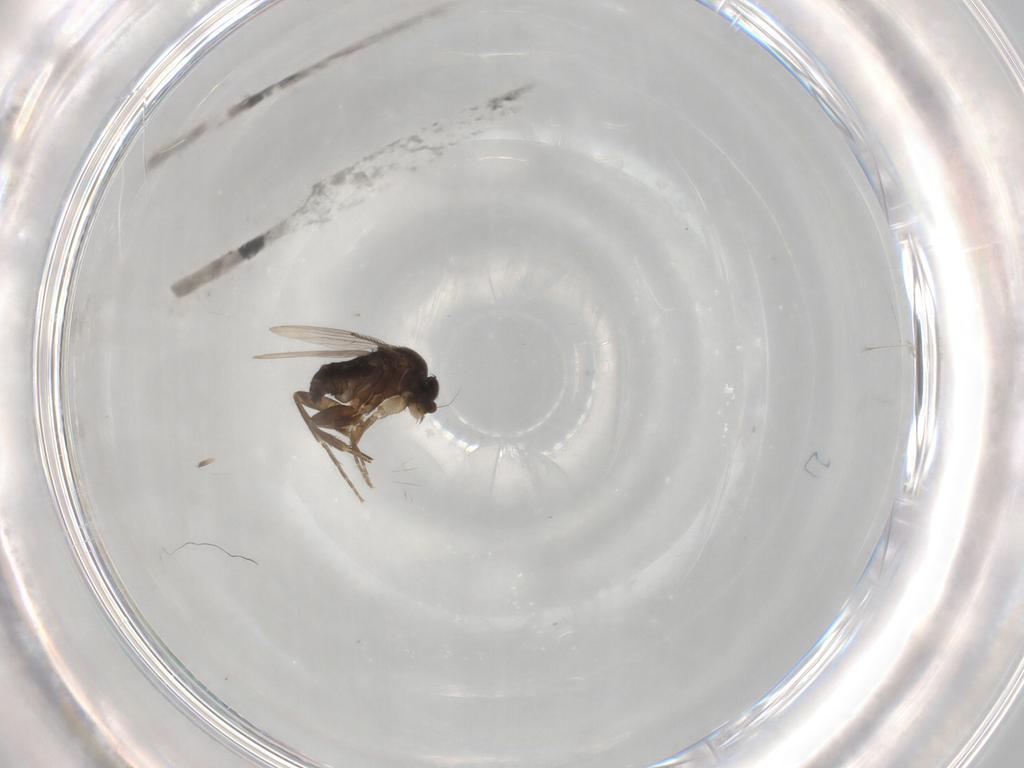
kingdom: Animalia
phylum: Arthropoda
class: Insecta
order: Diptera
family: Phoridae
